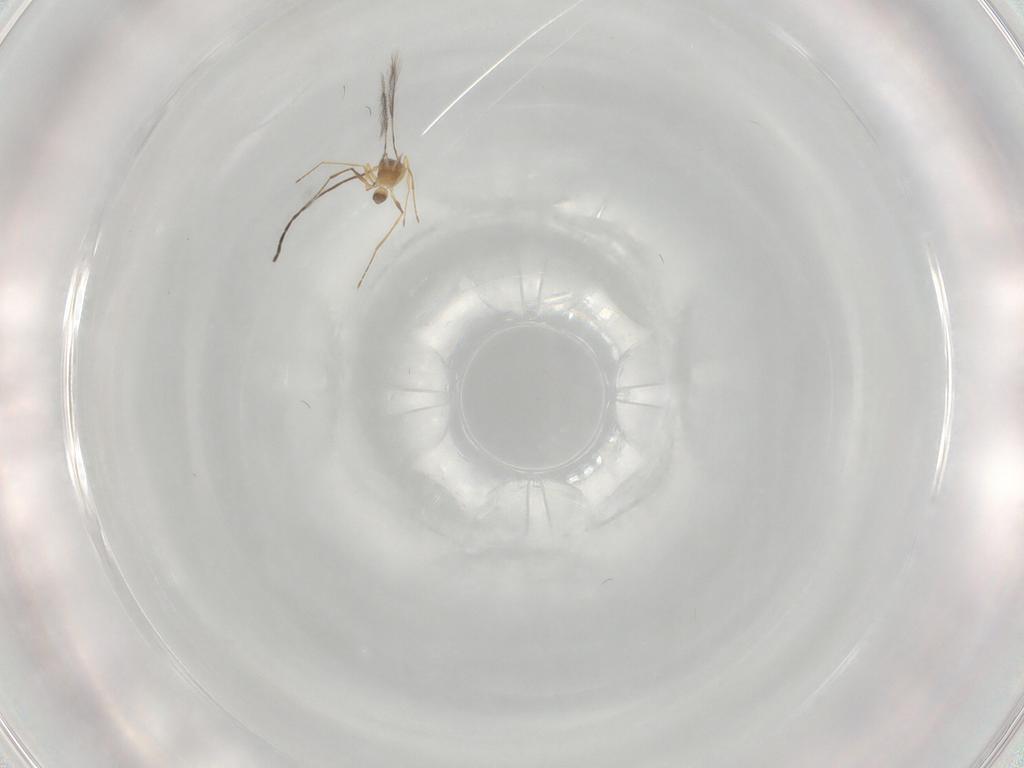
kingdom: Animalia
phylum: Arthropoda
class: Insecta
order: Hymenoptera
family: Mymaridae
